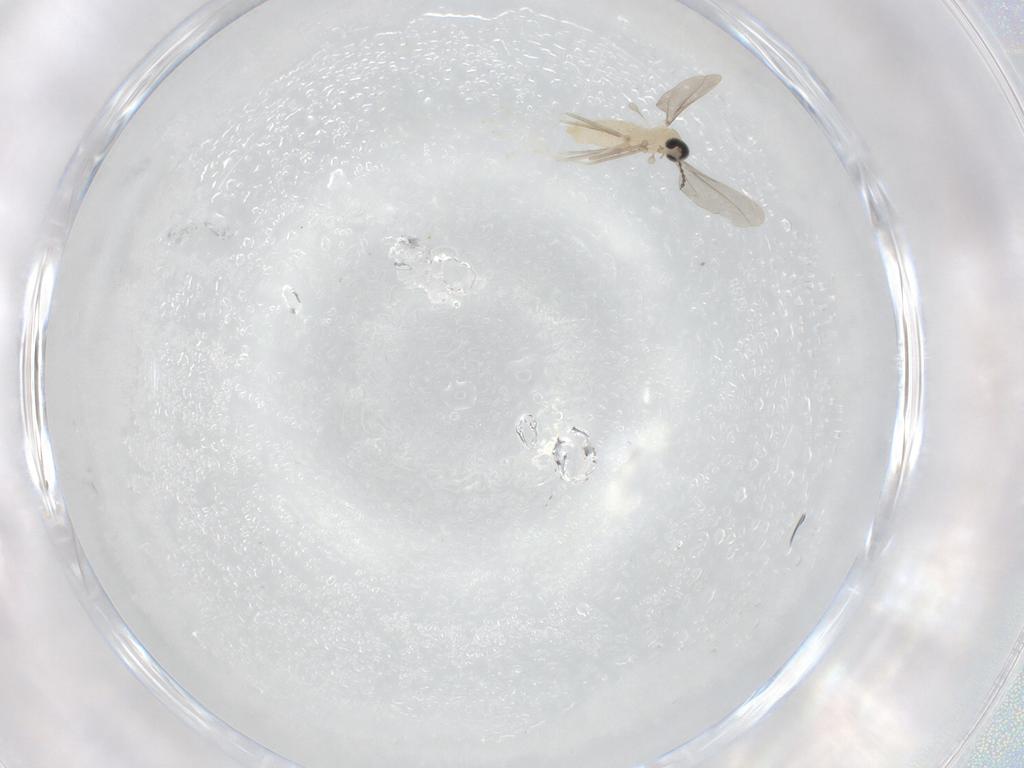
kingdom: Animalia
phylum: Arthropoda
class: Insecta
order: Diptera
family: Cecidomyiidae
